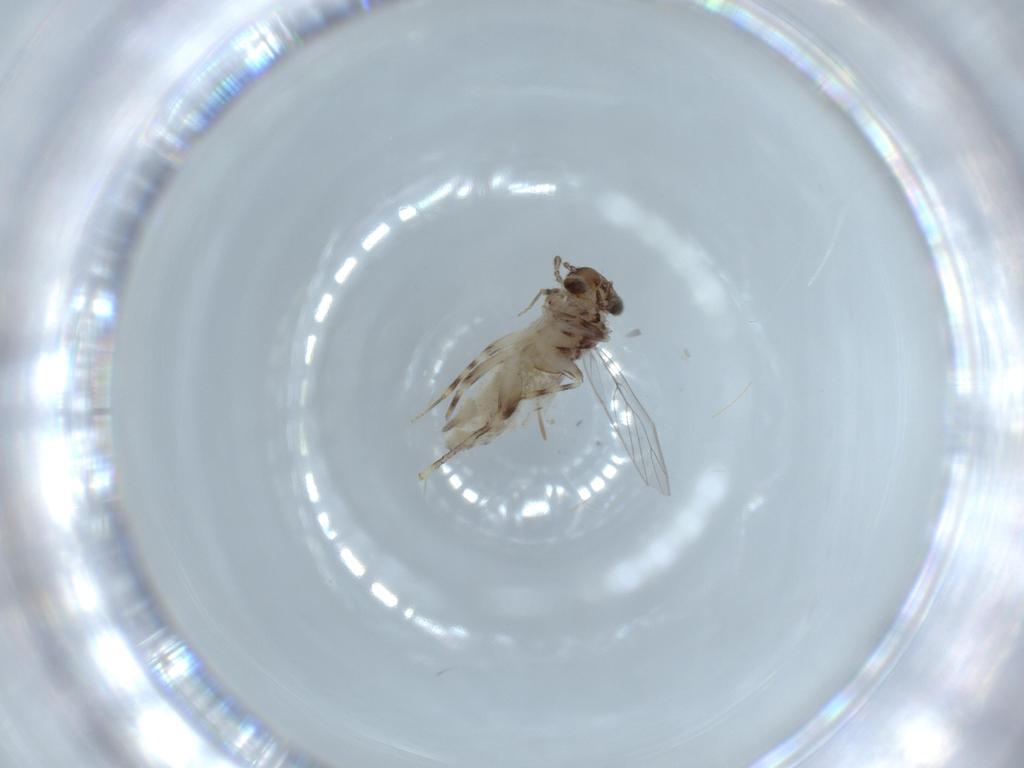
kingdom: Animalia
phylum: Arthropoda
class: Insecta
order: Psocodea
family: Lepidopsocidae
